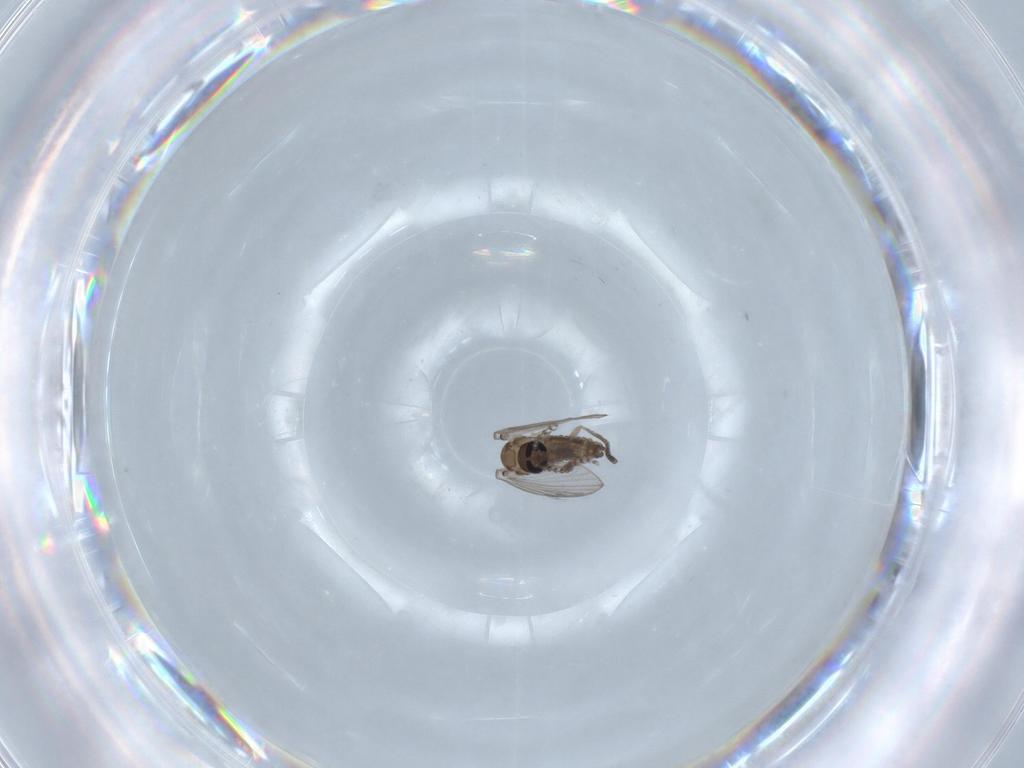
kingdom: Animalia
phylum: Arthropoda
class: Insecta
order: Diptera
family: Psychodidae
